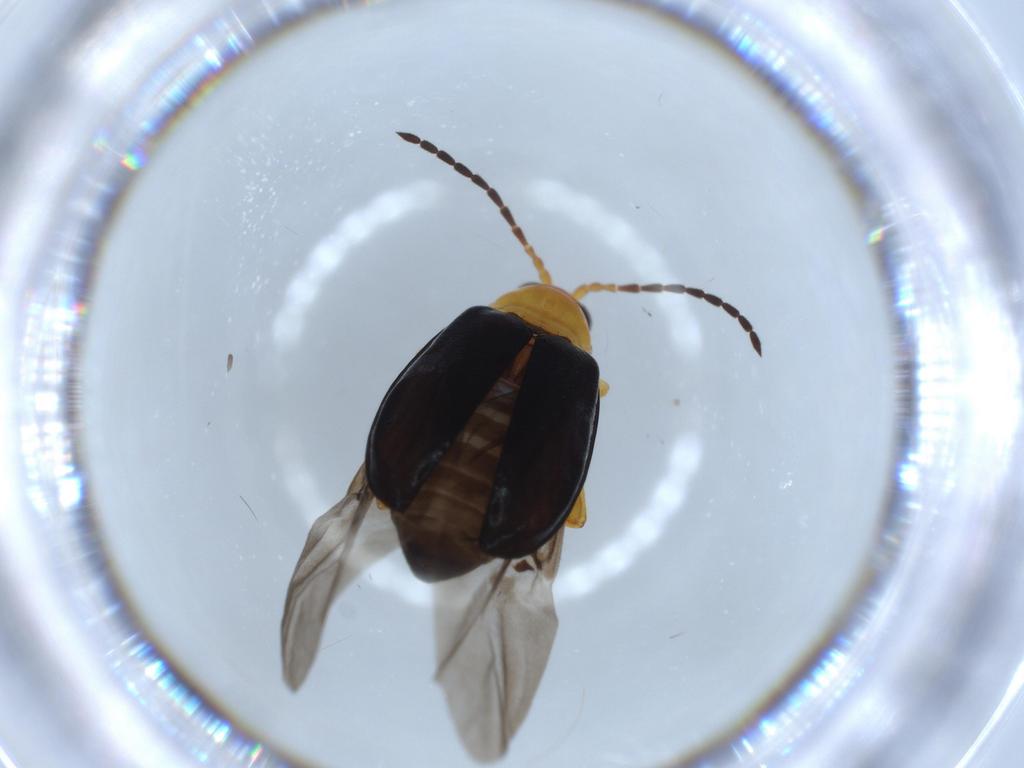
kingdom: Animalia
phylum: Arthropoda
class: Insecta
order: Coleoptera
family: Chrysomelidae
